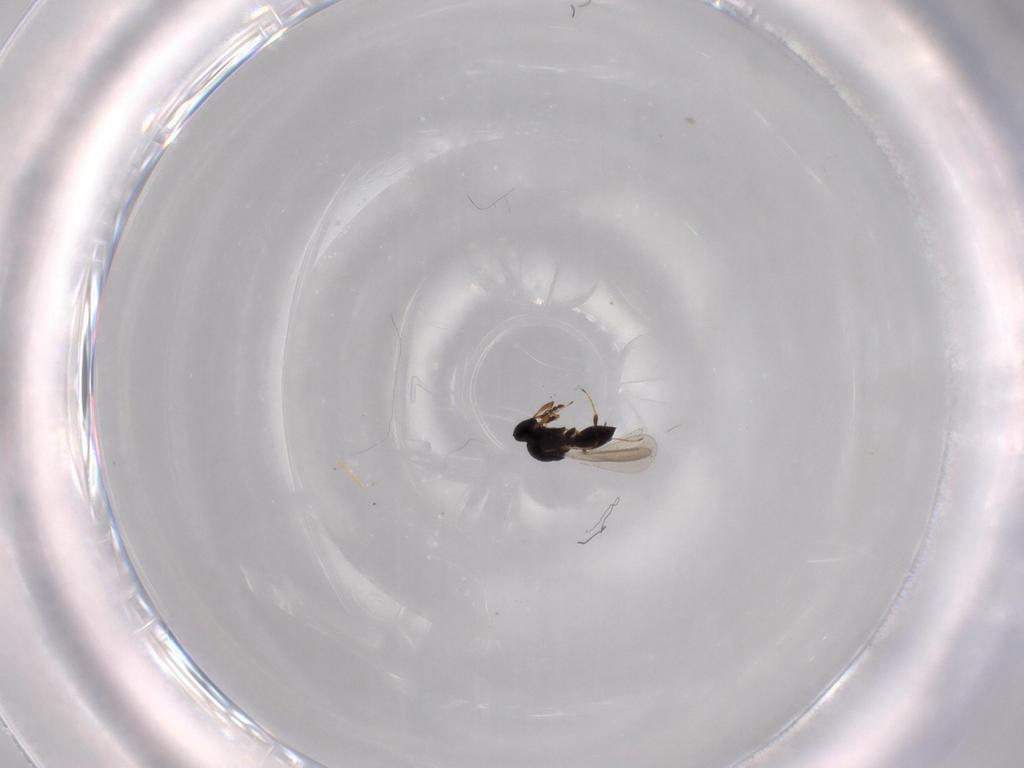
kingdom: Animalia
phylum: Arthropoda
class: Insecta
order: Hymenoptera
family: Platygastridae
